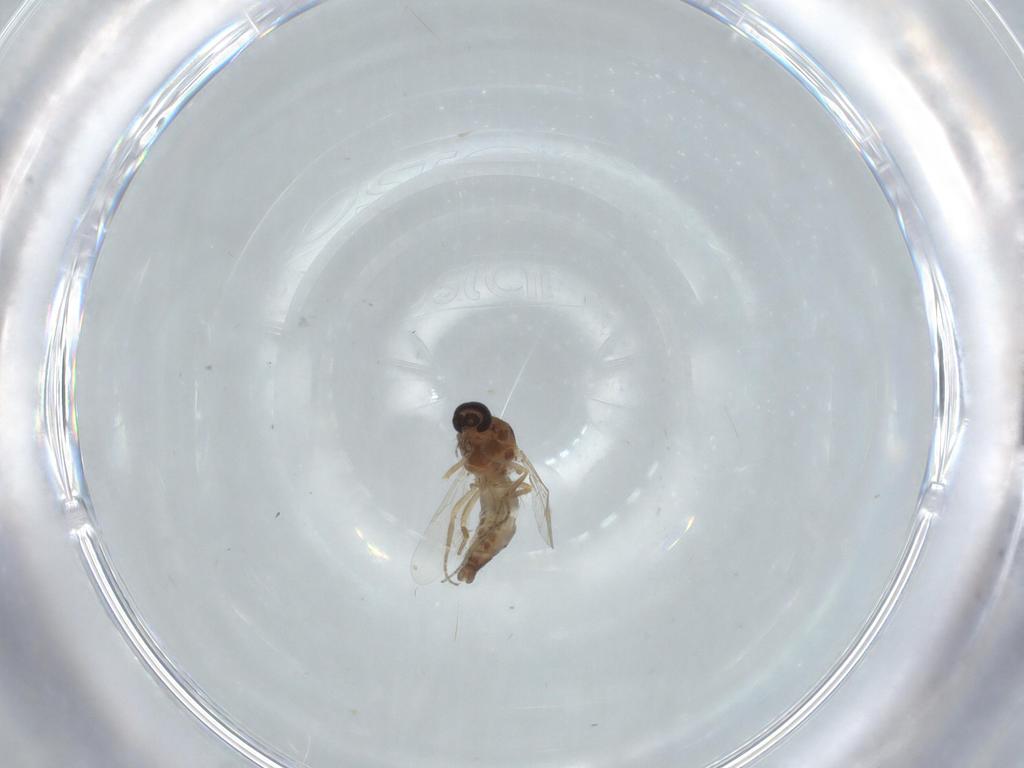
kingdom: Animalia
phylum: Arthropoda
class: Insecta
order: Diptera
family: Ceratopogonidae
